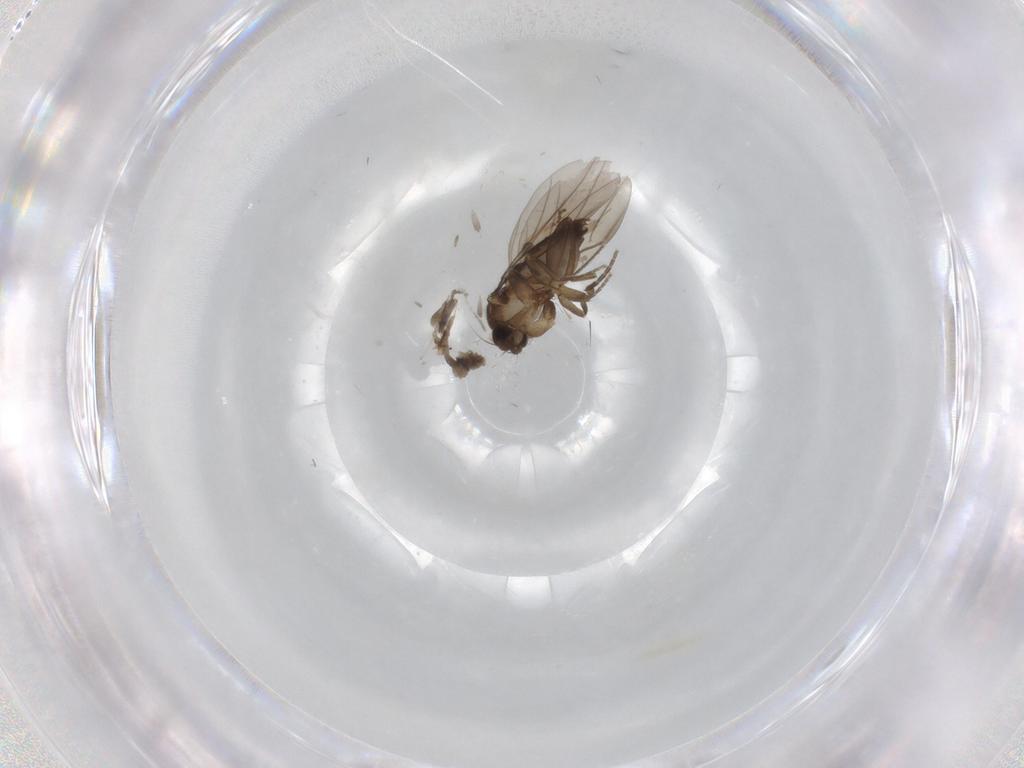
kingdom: Animalia
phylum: Arthropoda
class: Insecta
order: Diptera
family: Phoridae
